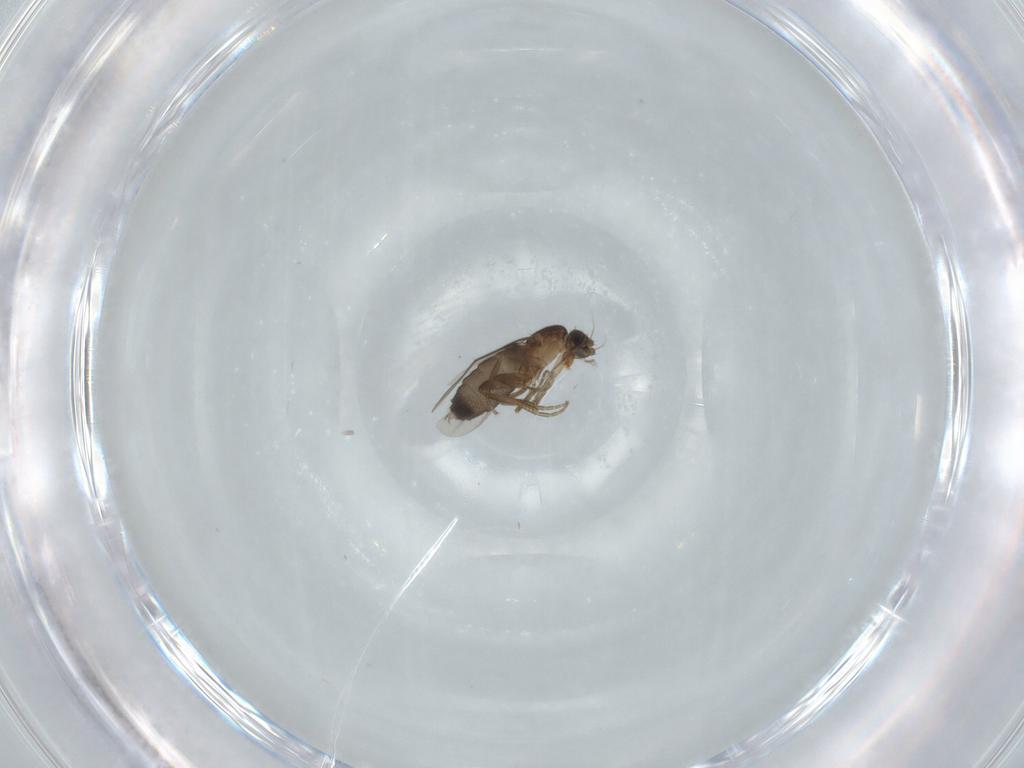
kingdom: Animalia
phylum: Arthropoda
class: Insecta
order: Diptera
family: Phoridae
